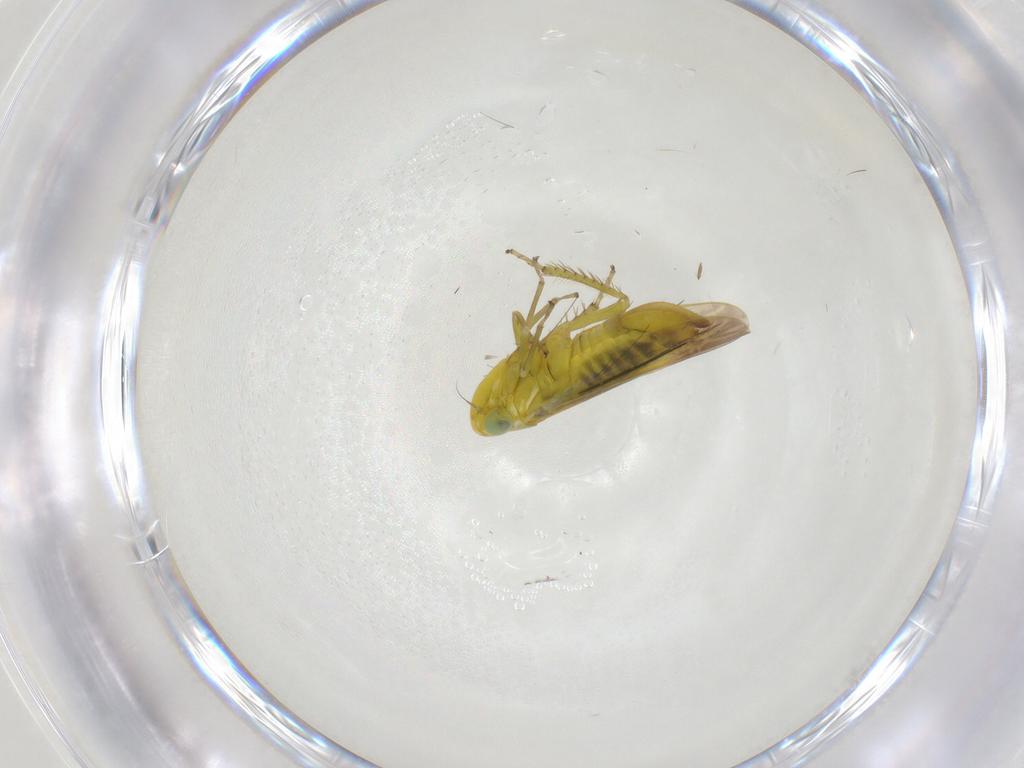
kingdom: Animalia
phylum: Arthropoda
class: Insecta
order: Hemiptera
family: Cicadellidae
